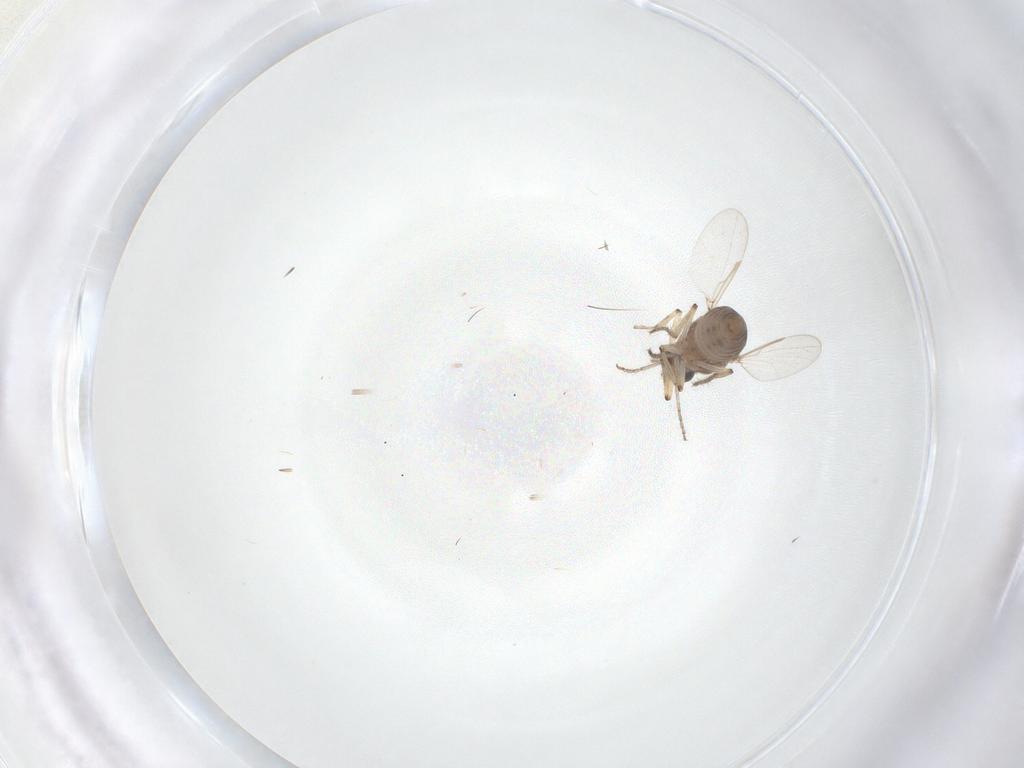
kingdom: Animalia
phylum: Arthropoda
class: Insecta
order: Diptera
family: Ceratopogonidae
